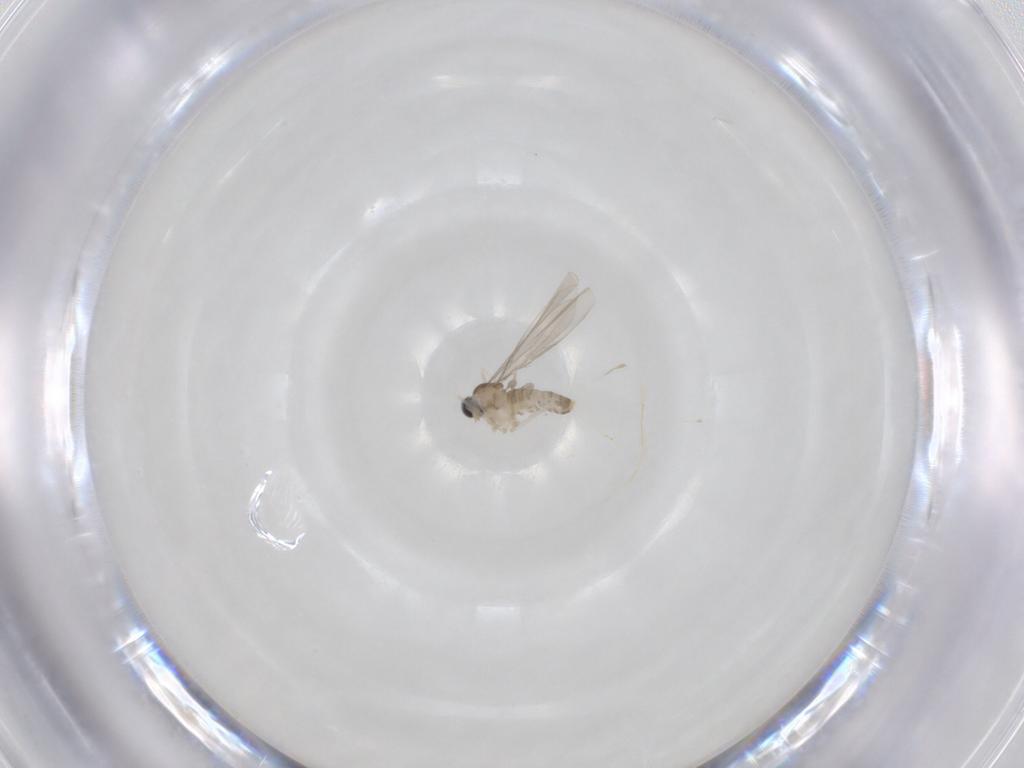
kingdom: Animalia
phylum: Arthropoda
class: Insecta
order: Diptera
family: Cecidomyiidae
